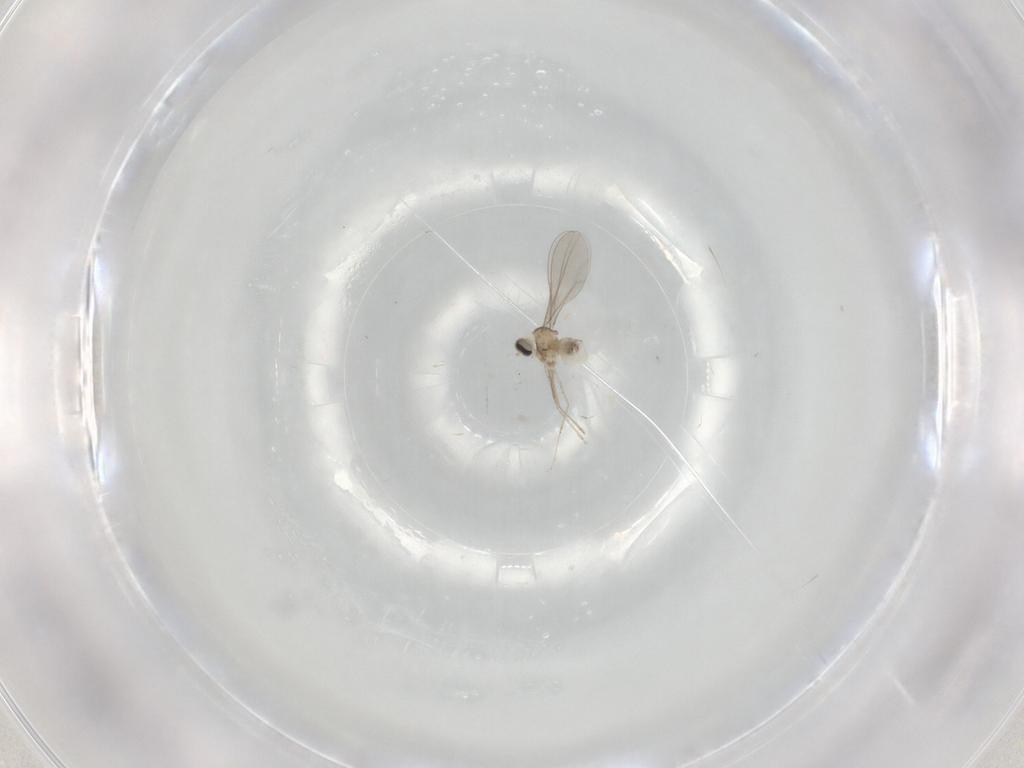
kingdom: Animalia
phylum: Arthropoda
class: Insecta
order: Diptera
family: Cecidomyiidae
